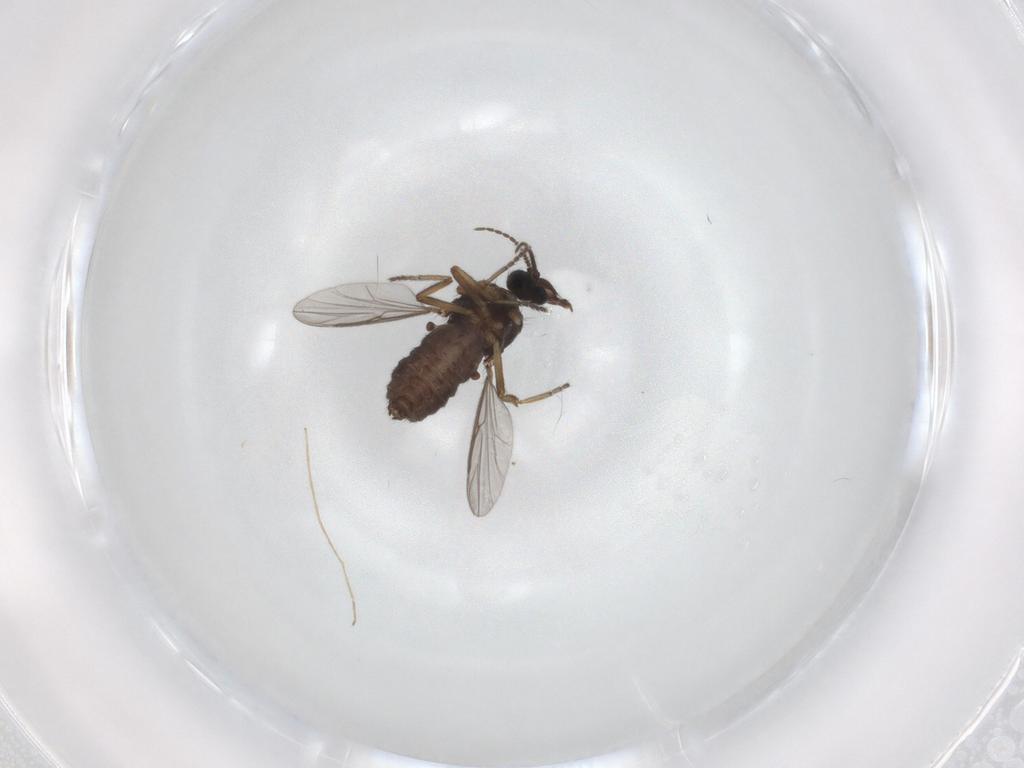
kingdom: Animalia
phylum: Arthropoda
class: Insecta
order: Diptera
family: Ceratopogonidae
